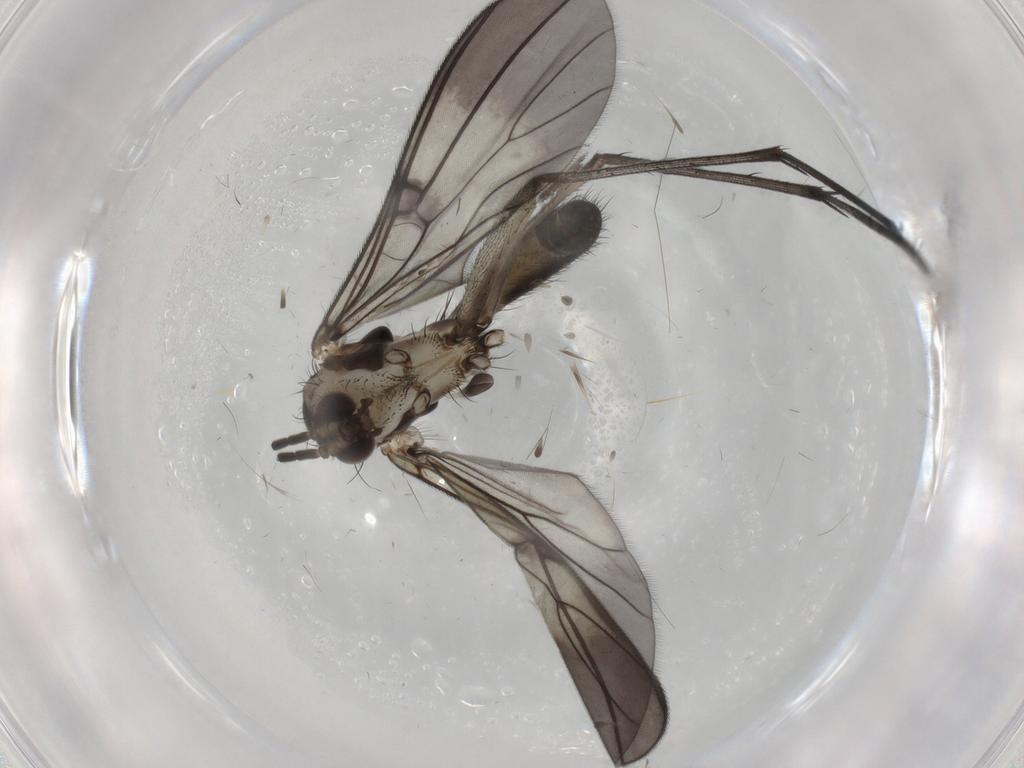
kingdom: Animalia
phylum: Arthropoda
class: Insecta
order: Diptera
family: Mycetophilidae
